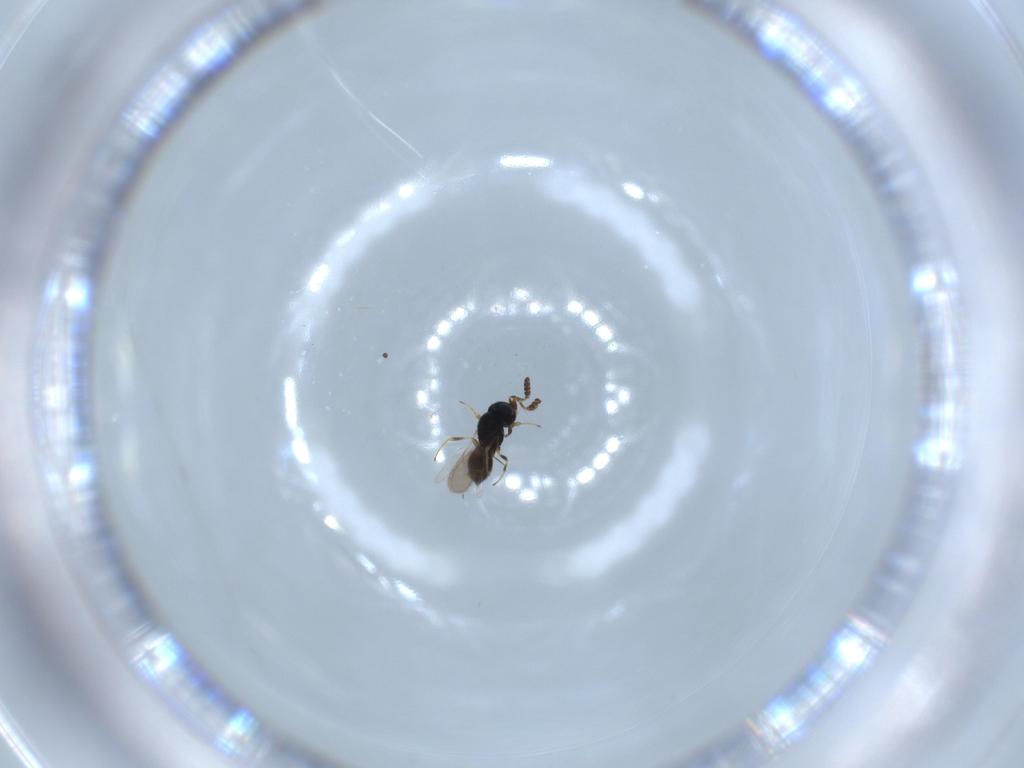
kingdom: Animalia
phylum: Arthropoda
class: Insecta
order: Hymenoptera
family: Scelionidae
